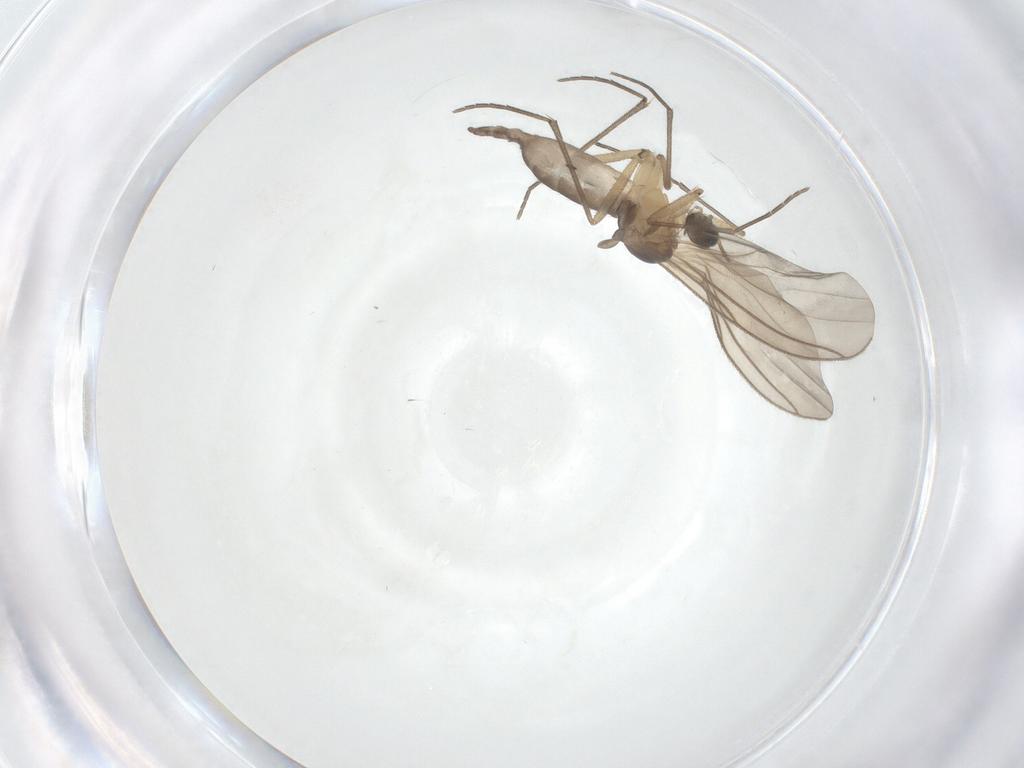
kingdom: Animalia
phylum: Arthropoda
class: Insecta
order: Diptera
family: Sciaridae
